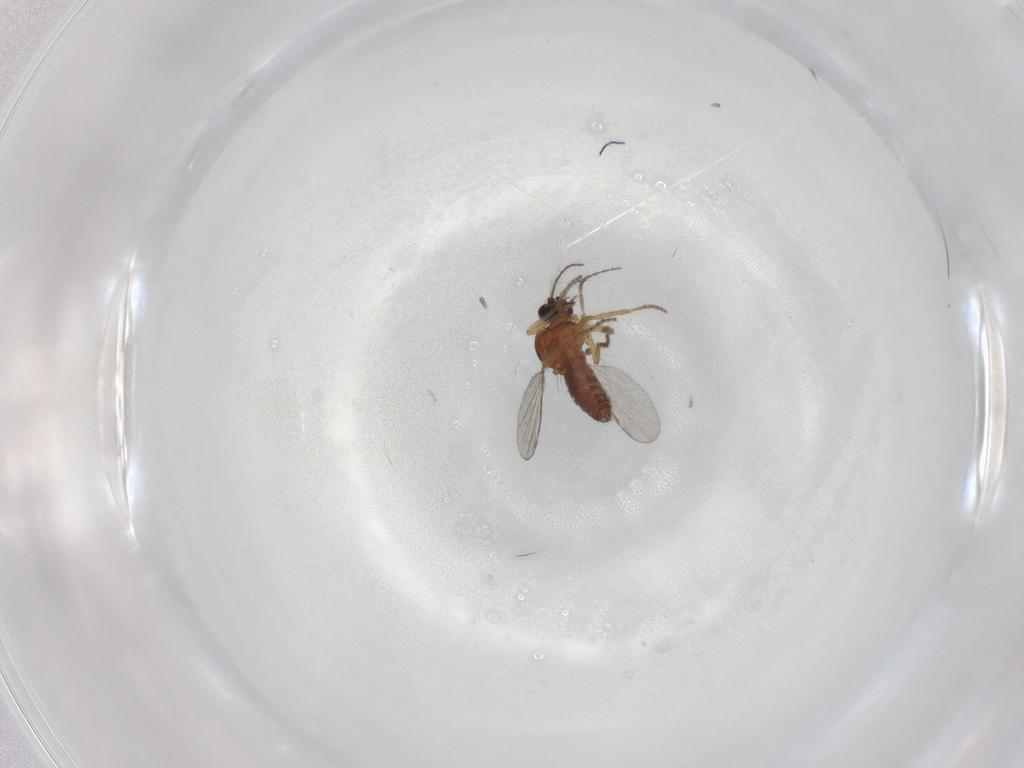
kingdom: Animalia
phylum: Arthropoda
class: Insecta
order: Diptera
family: Ceratopogonidae
